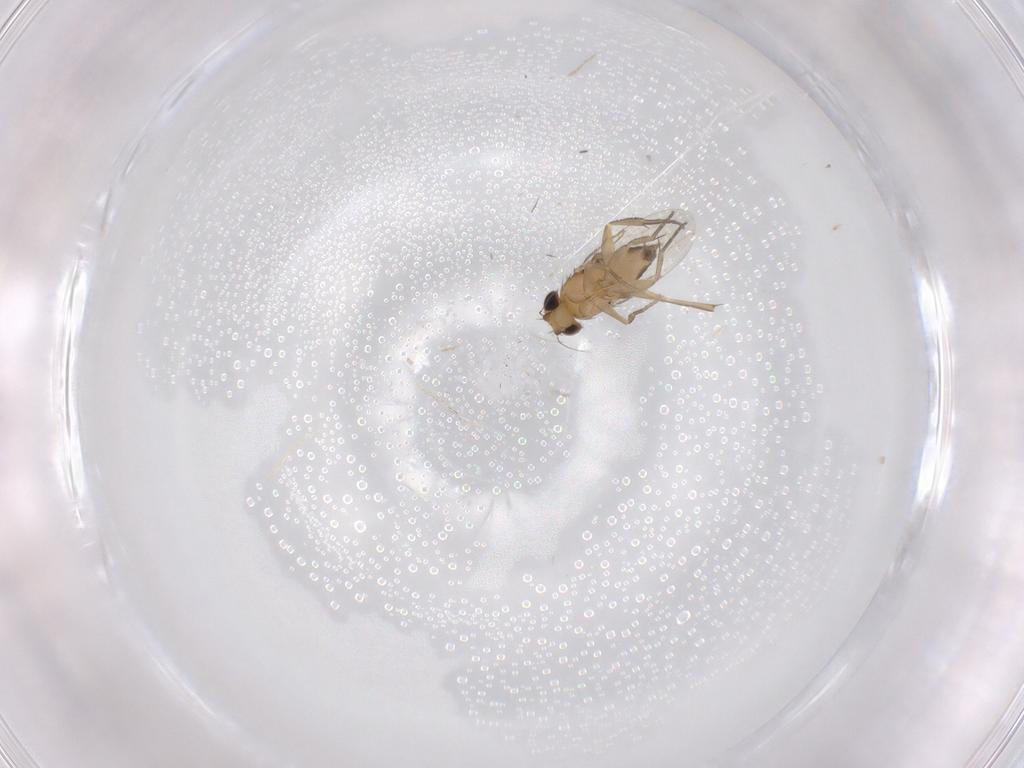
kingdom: Animalia
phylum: Arthropoda
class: Insecta
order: Diptera
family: Phoridae
